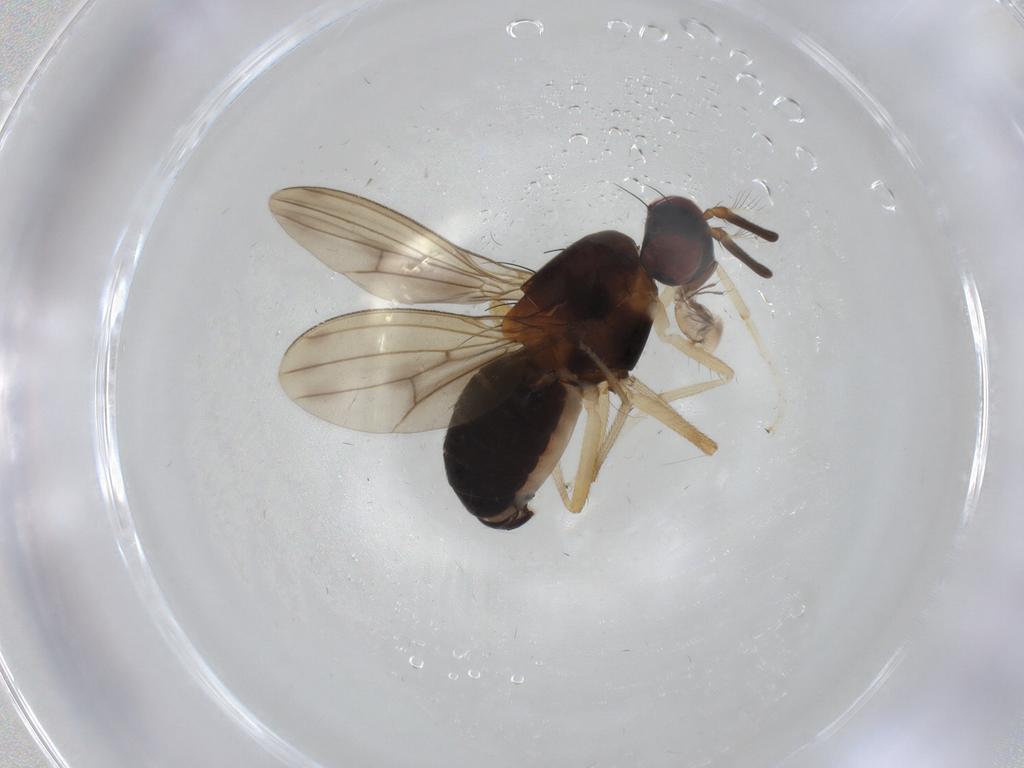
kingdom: Animalia
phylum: Arthropoda
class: Insecta
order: Diptera
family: Lauxaniidae
